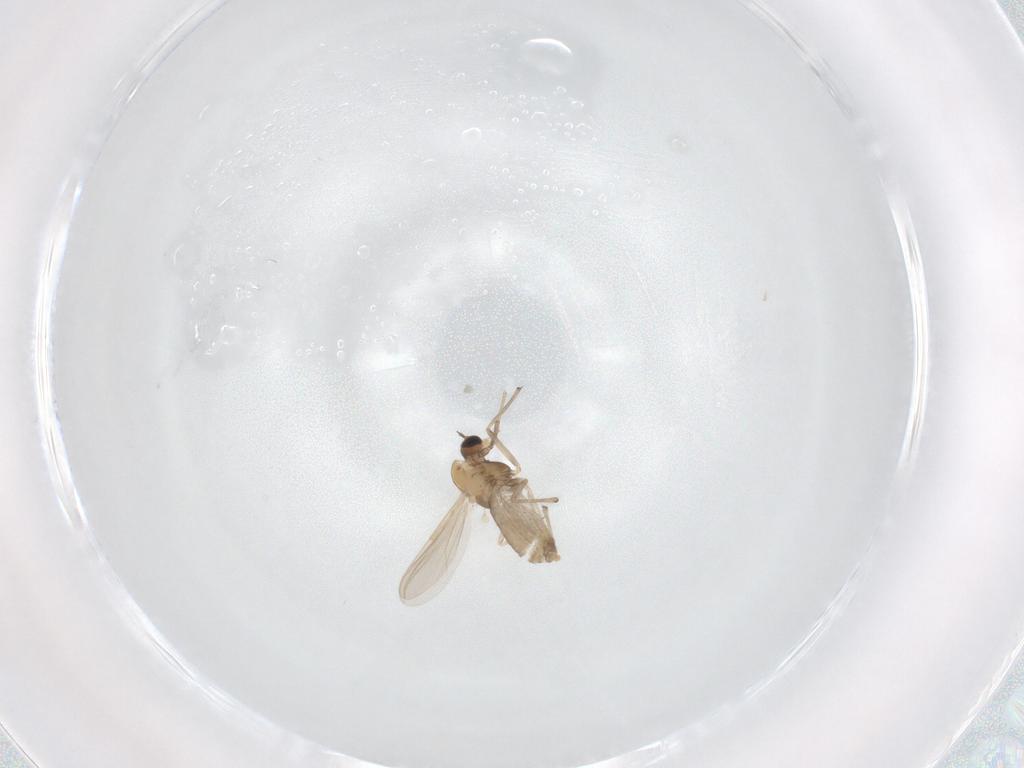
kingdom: Animalia
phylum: Arthropoda
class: Insecta
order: Diptera
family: Chironomidae
